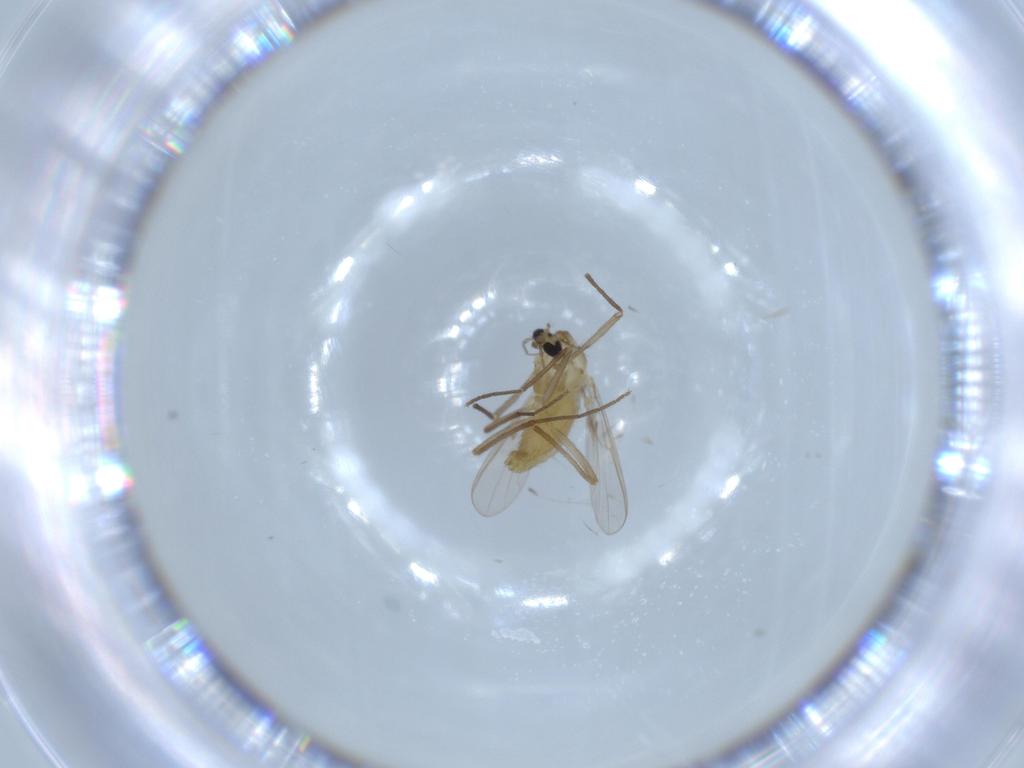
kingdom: Animalia
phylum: Arthropoda
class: Insecta
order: Diptera
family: Chironomidae
